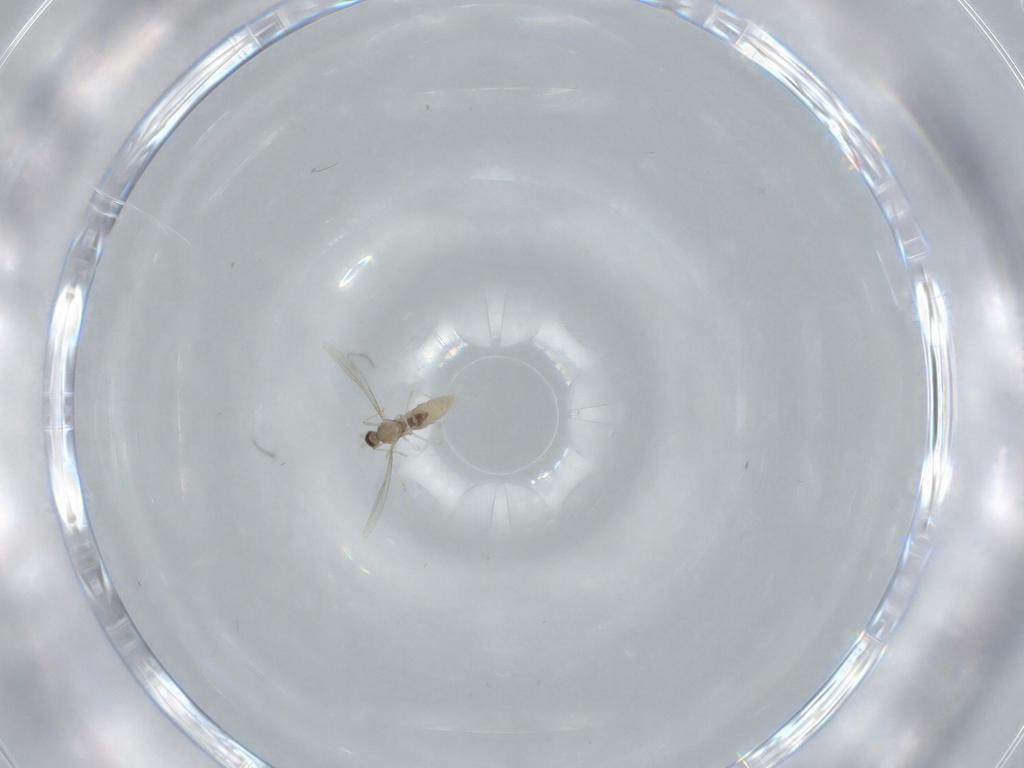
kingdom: Animalia
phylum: Arthropoda
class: Insecta
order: Diptera
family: Cecidomyiidae
